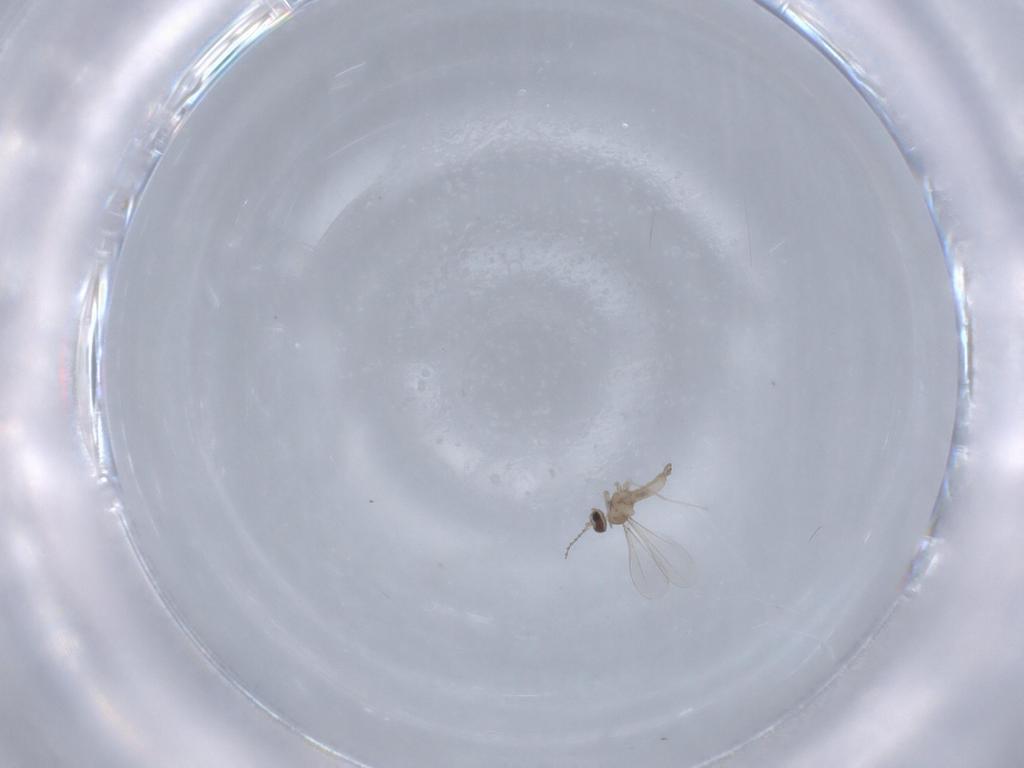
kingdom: Animalia
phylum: Arthropoda
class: Insecta
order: Diptera
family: Cecidomyiidae
